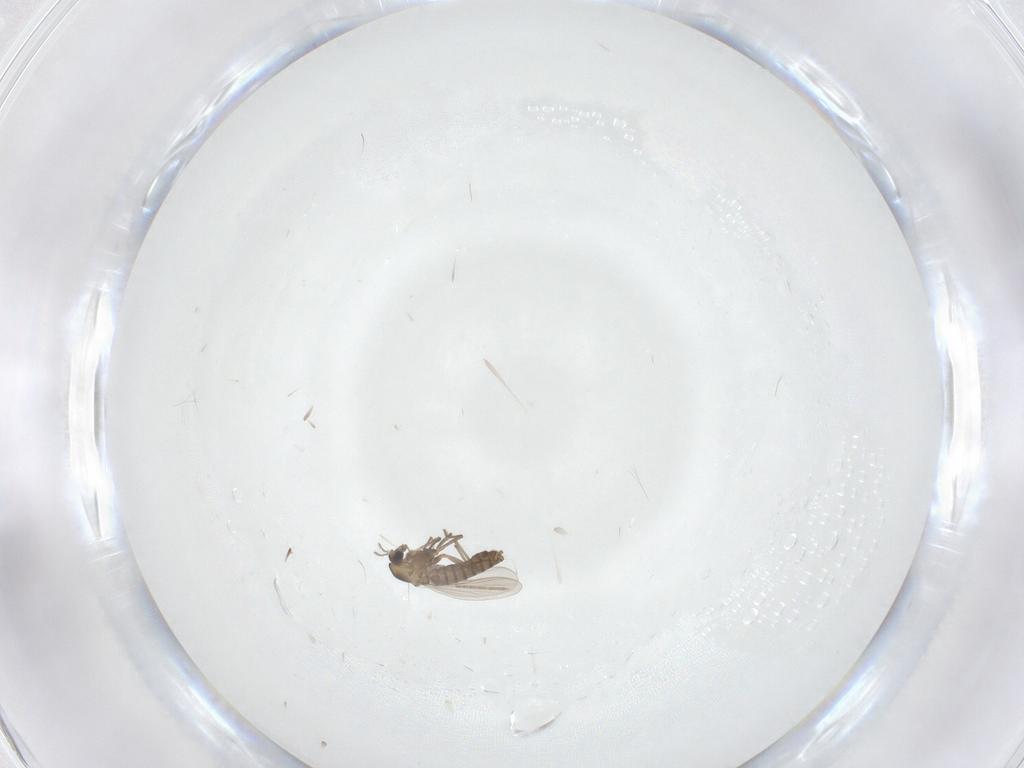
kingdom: Animalia
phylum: Arthropoda
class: Insecta
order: Diptera
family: Chironomidae
